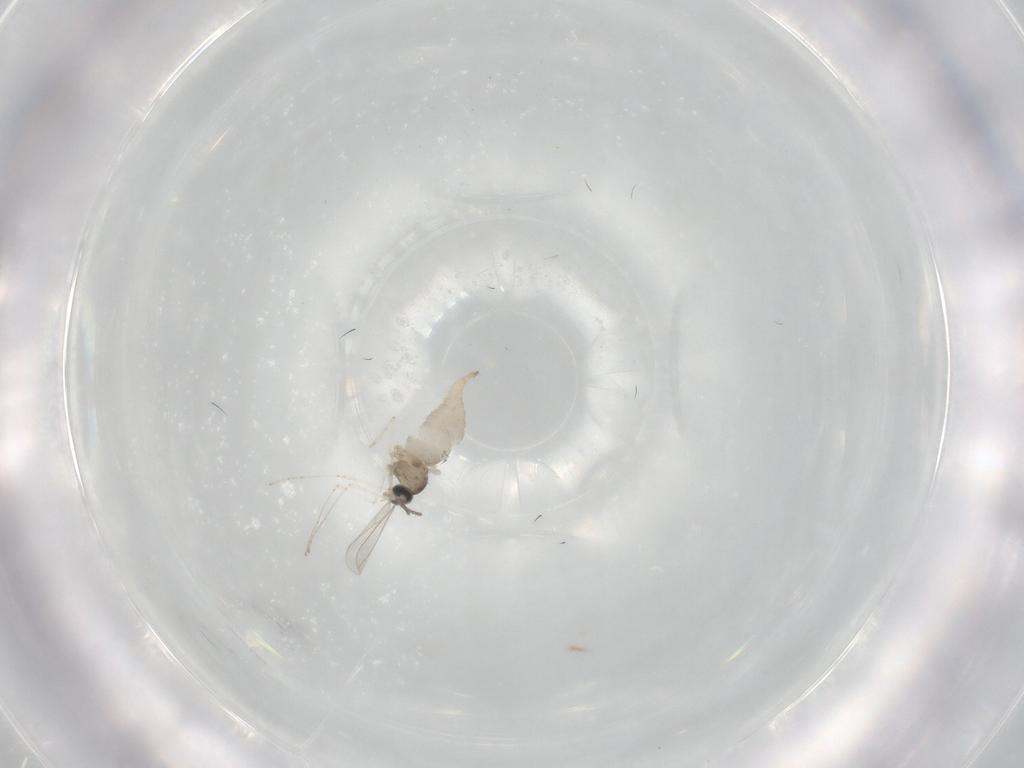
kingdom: Animalia
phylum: Arthropoda
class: Insecta
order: Diptera
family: Cecidomyiidae
